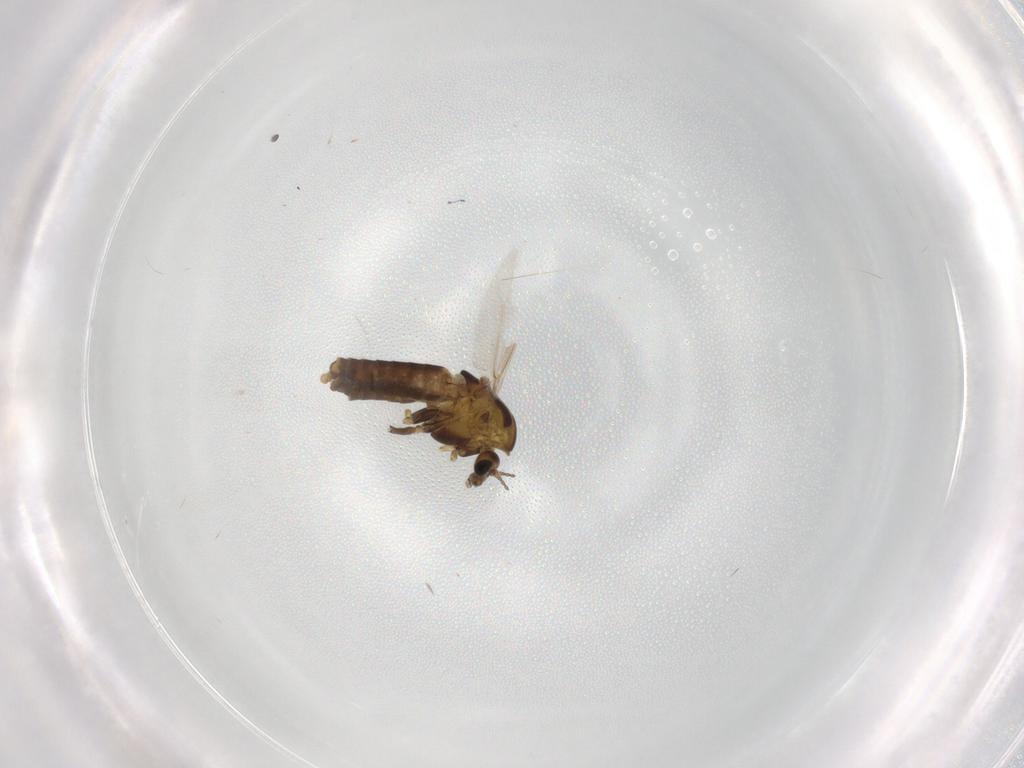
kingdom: Animalia
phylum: Arthropoda
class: Insecta
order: Diptera
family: Chironomidae
